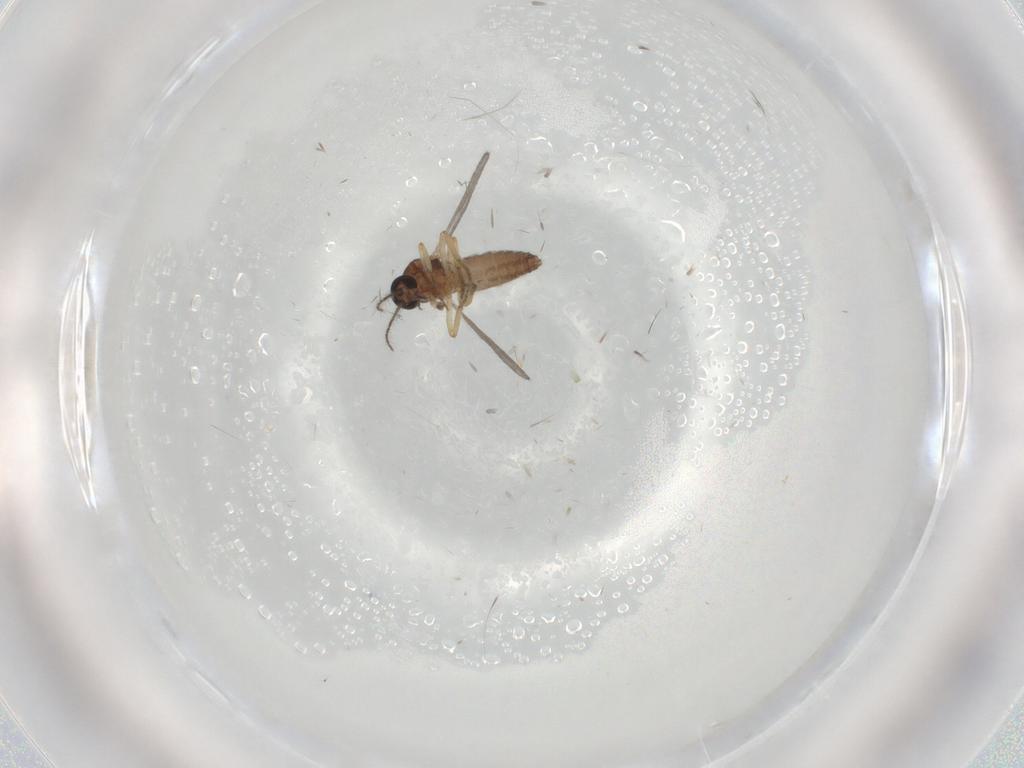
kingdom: Animalia
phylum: Arthropoda
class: Insecta
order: Diptera
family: Ceratopogonidae
